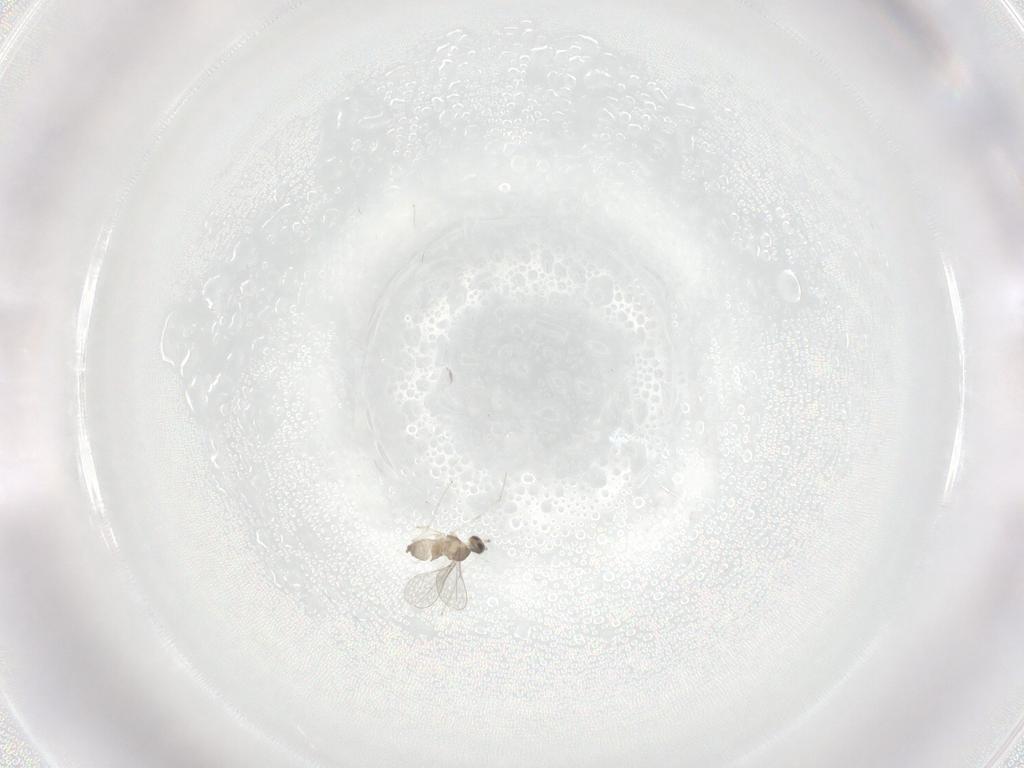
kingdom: Animalia
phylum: Arthropoda
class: Insecta
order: Diptera
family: Cecidomyiidae
